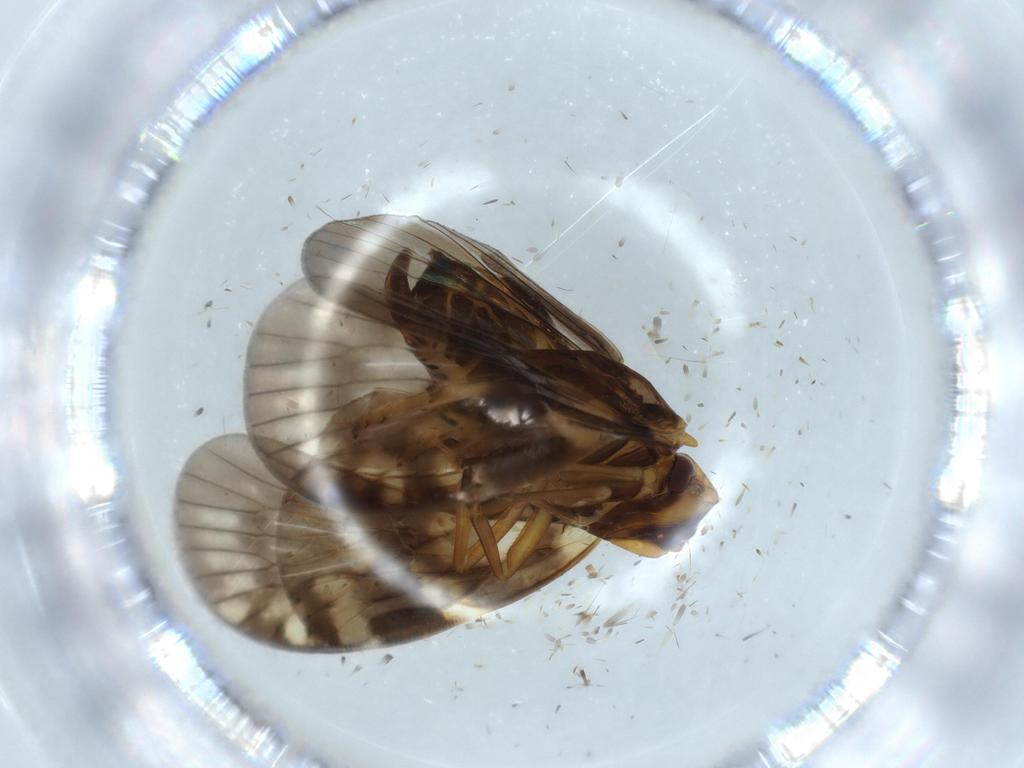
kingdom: Animalia
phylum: Arthropoda
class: Insecta
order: Hemiptera
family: Cixiidae
